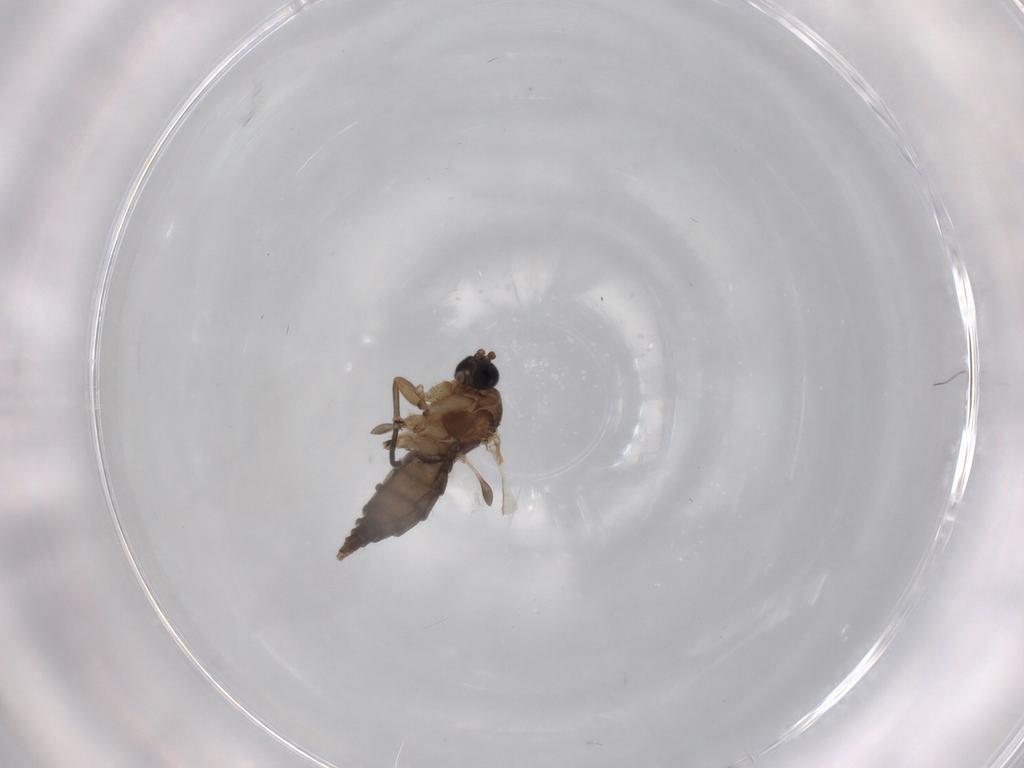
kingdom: Animalia
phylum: Arthropoda
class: Insecta
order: Diptera
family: Sciaridae
